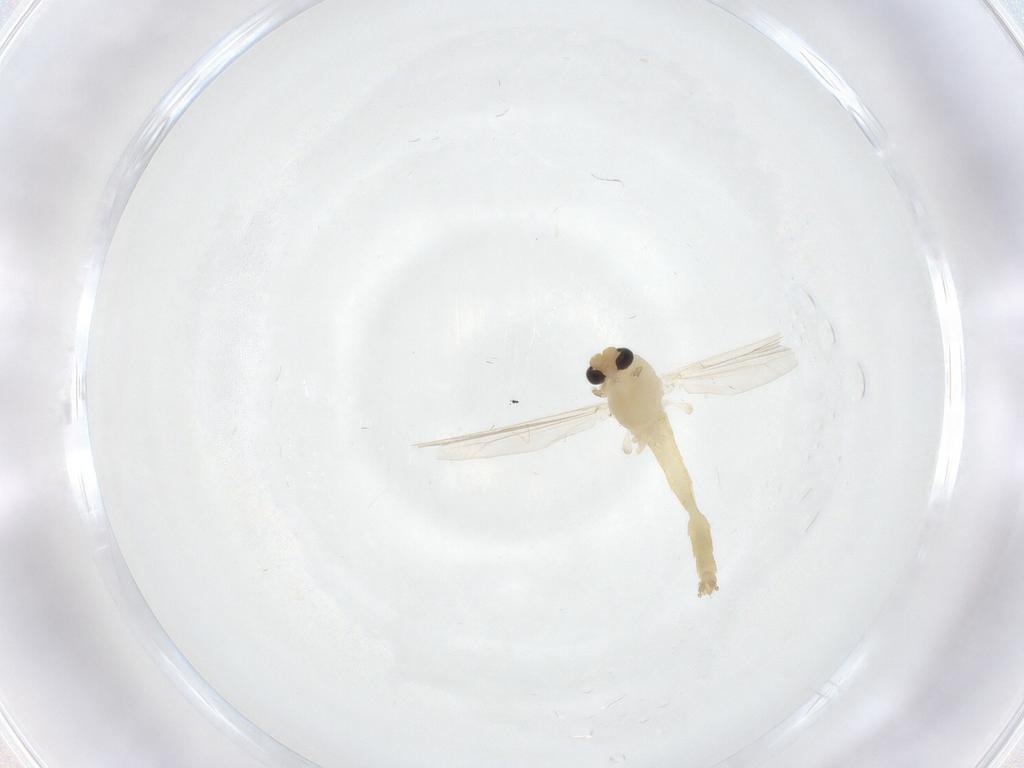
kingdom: Animalia
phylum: Arthropoda
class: Insecta
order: Diptera
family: Chironomidae
